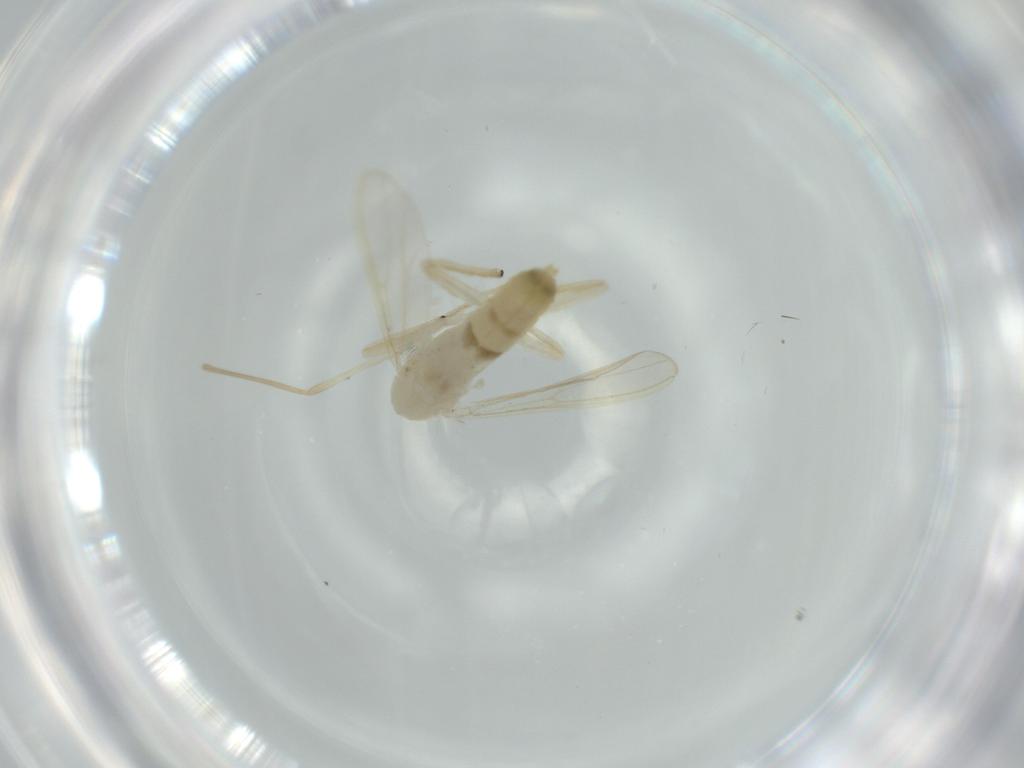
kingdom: Animalia
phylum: Arthropoda
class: Insecta
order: Diptera
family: Chironomidae
